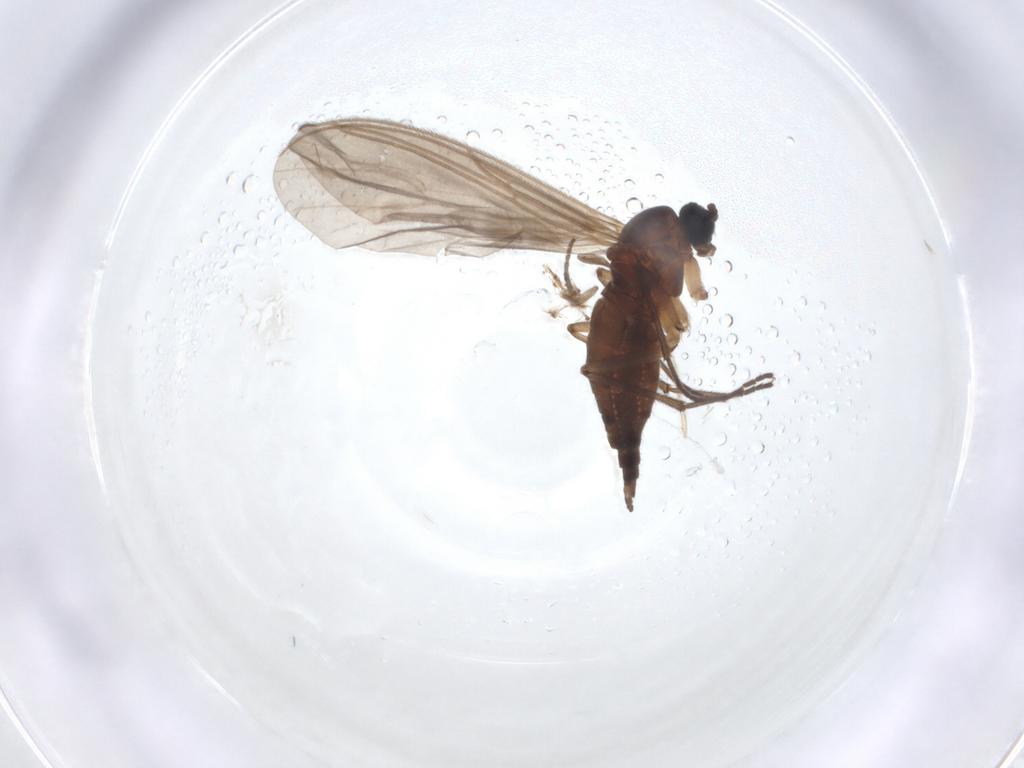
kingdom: Animalia
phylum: Arthropoda
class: Insecta
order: Diptera
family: Sciaridae
